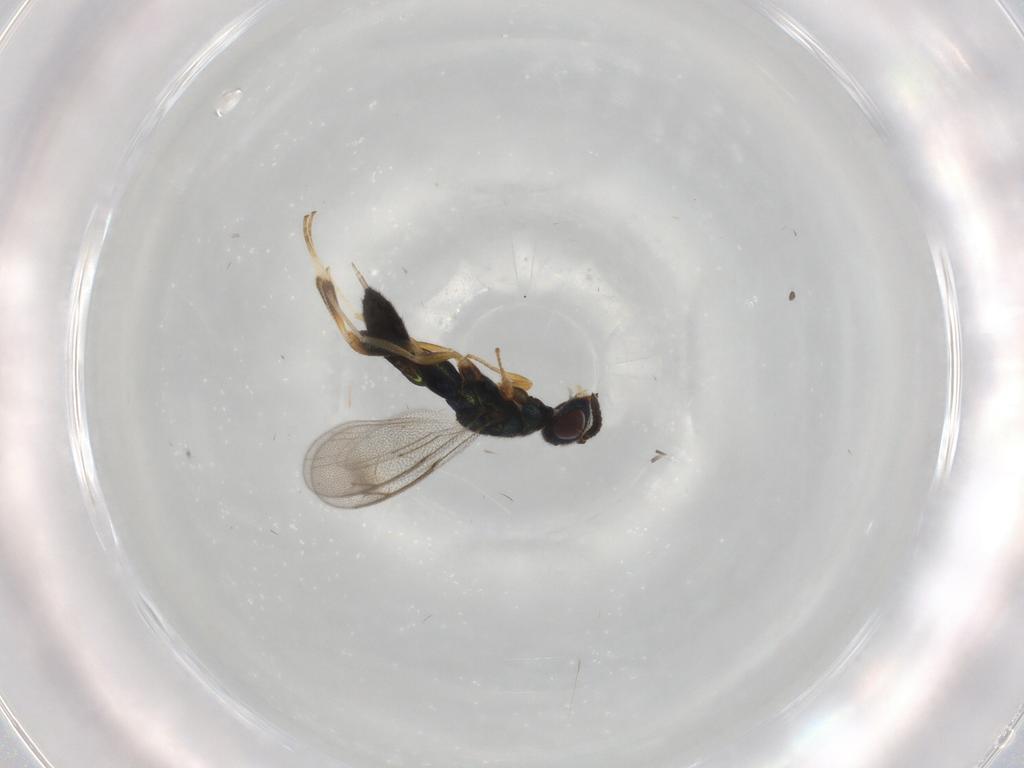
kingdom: Animalia
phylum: Arthropoda
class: Insecta
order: Hymenoptera
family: Cleonyminae
